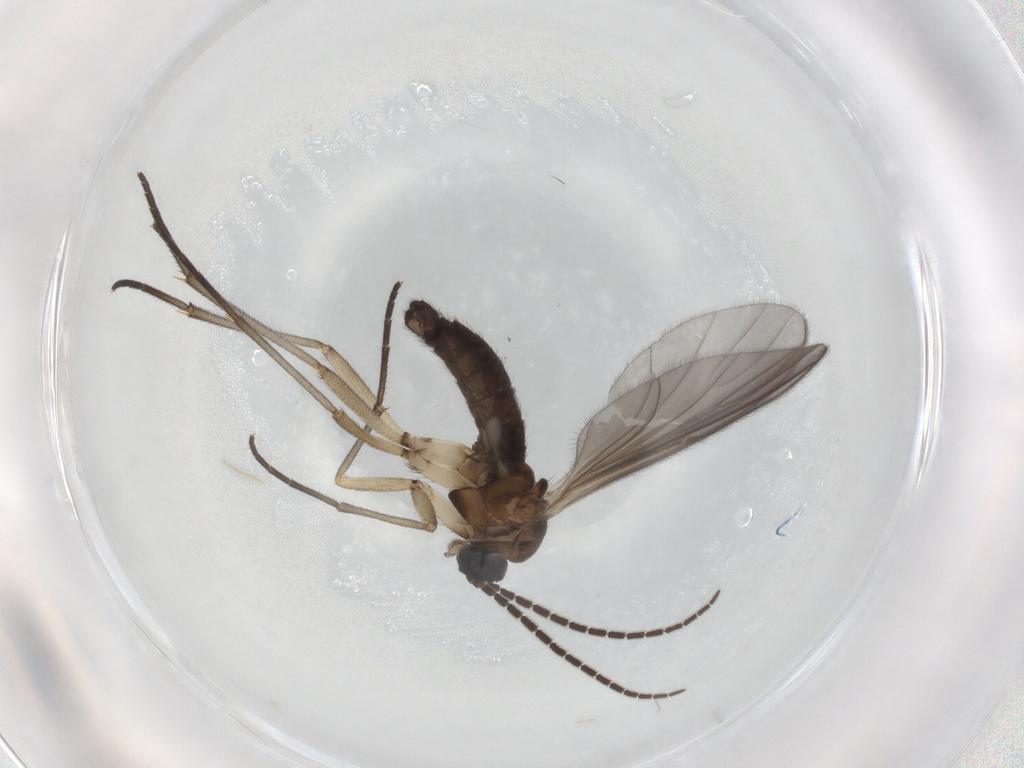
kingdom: Animalia
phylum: Arthropoda
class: Insecta
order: Diptera
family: Sciaridae
